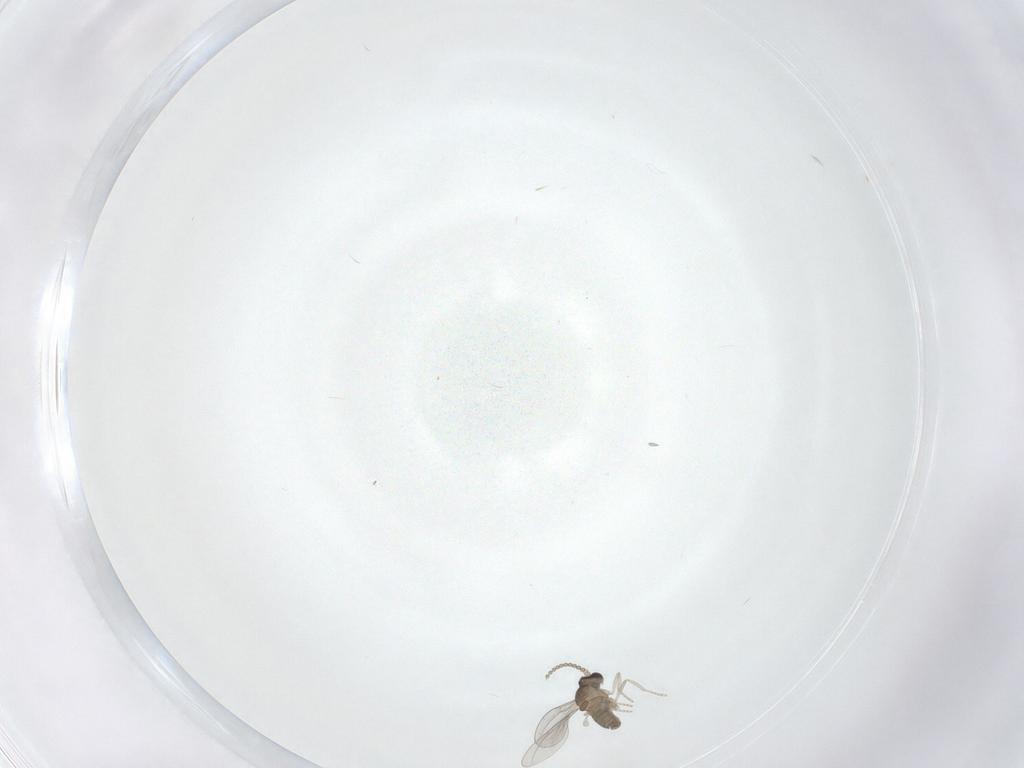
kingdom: Animalia
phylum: Arthropoda
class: Insecta
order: Diptera
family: Cecidomyiidae
